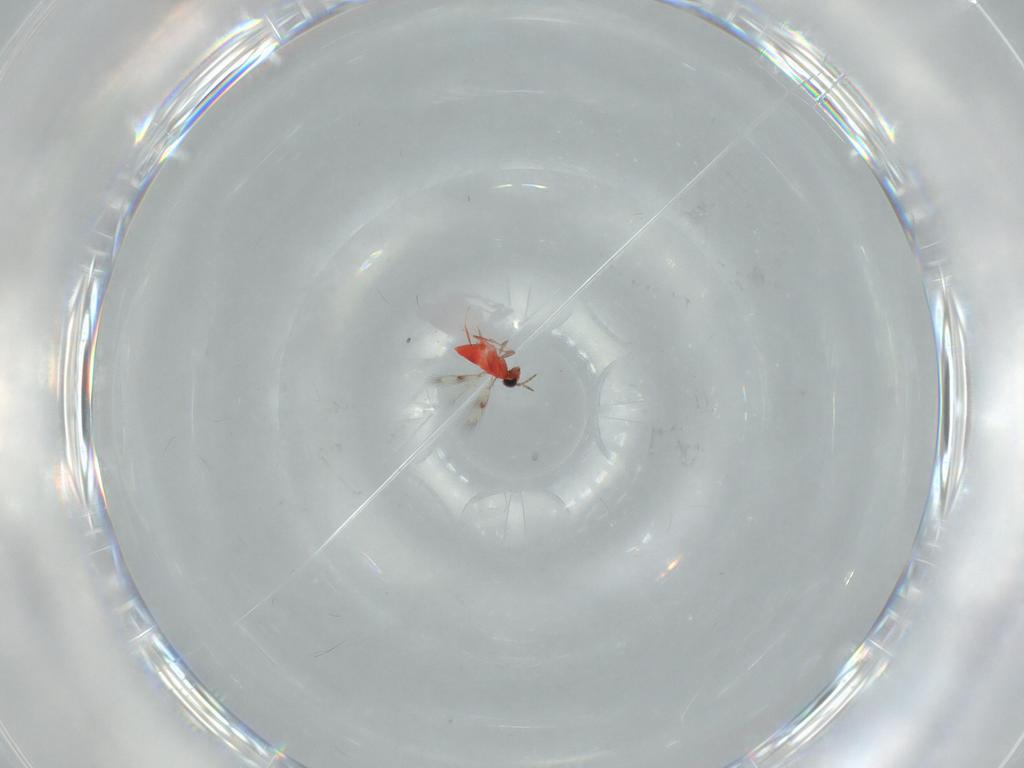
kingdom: Animalia
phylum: Arthropoda
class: Insecta
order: Hymenoptera
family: Trichogrammatidae
